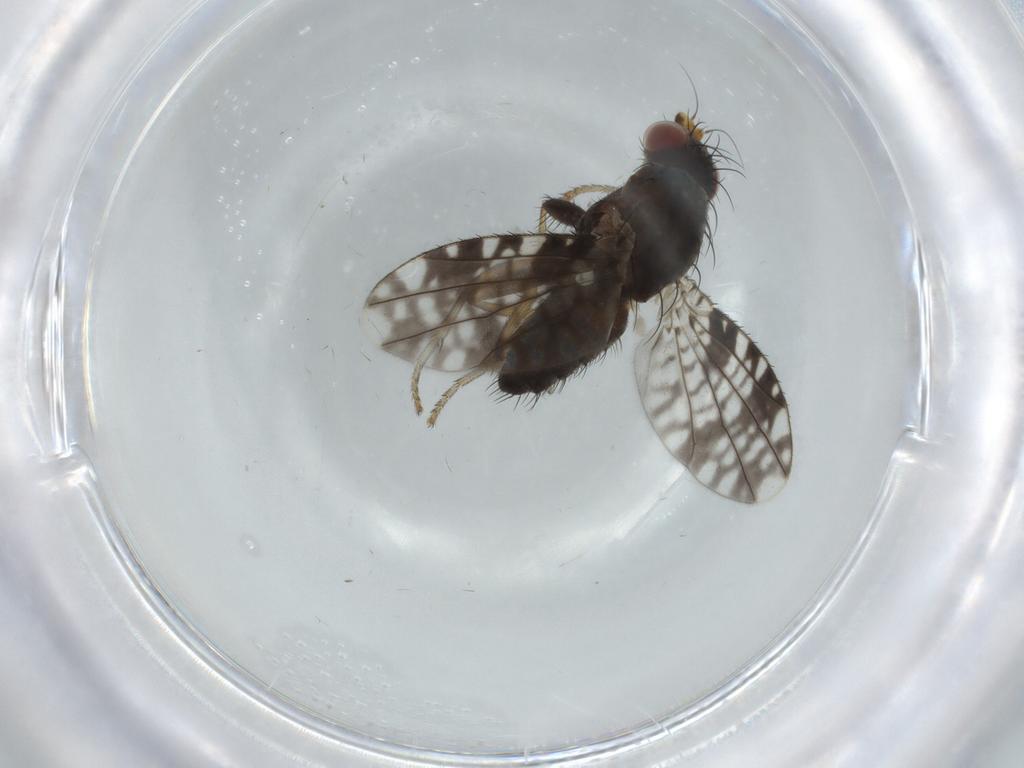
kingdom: Animalia
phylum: Arthropoda
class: Insecta
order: Diptera
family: Tephritidae
